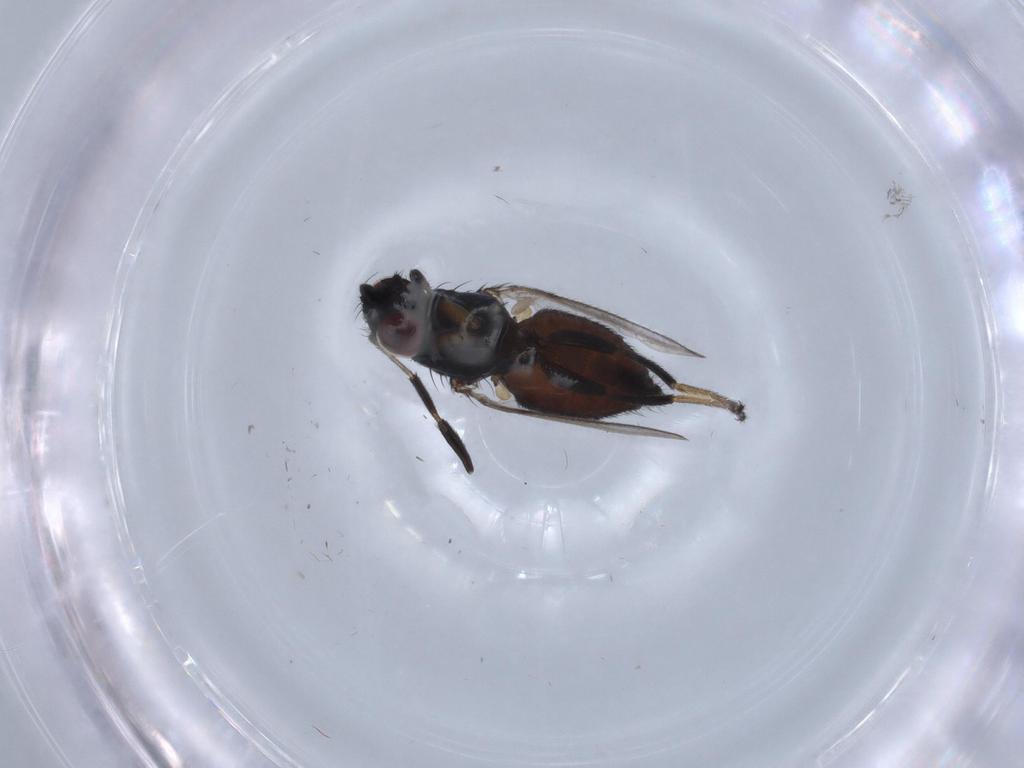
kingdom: Animalia
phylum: Arthropoda
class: Insecta
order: Diptera
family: Milichiidae
